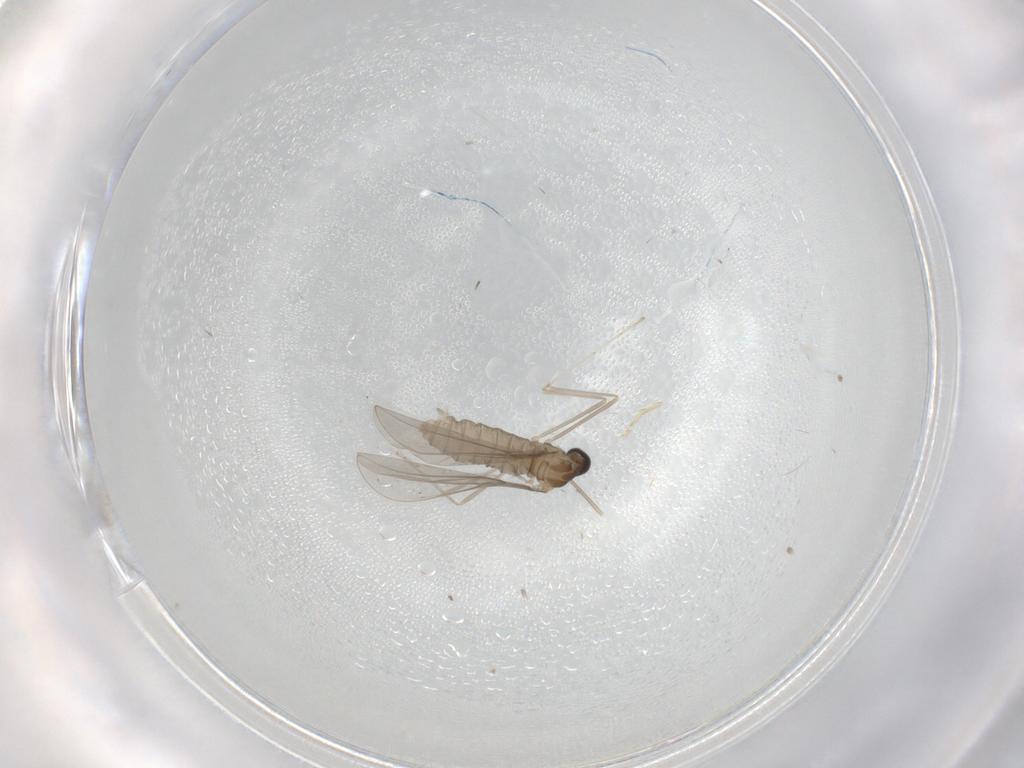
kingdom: Animalia
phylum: Arthropoda
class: Insecta
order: Diptera
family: Cecidomyiidae
